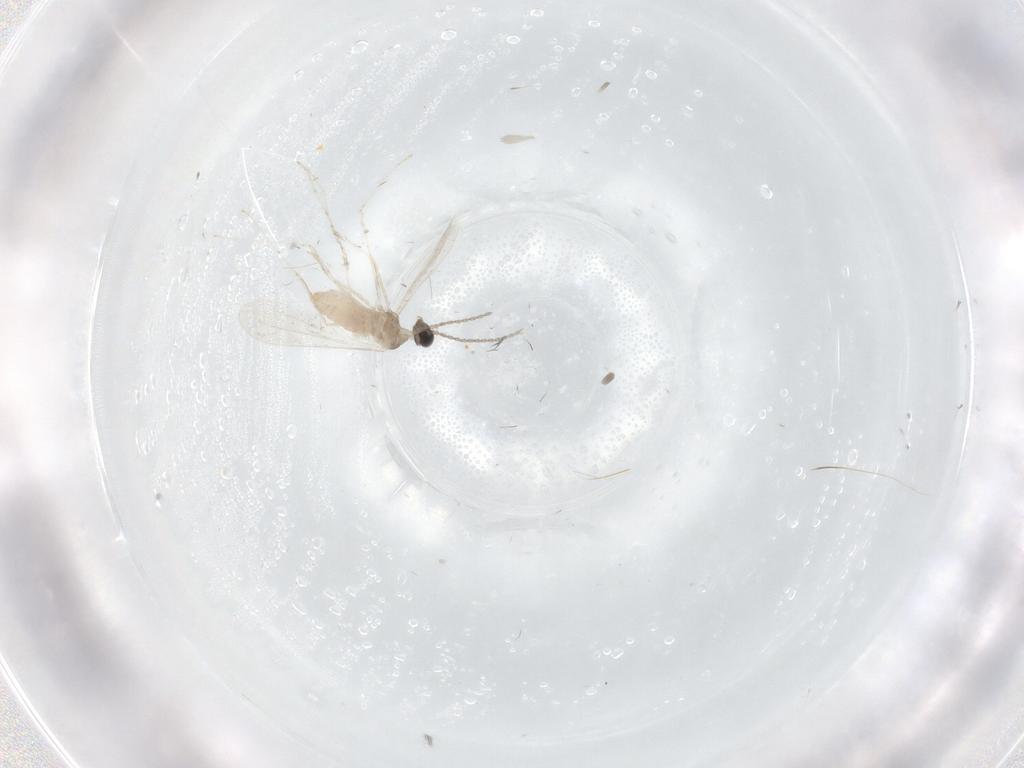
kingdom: Animalia
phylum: Arthropoda
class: Insecta
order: Diptera
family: Cecidomyiidae
